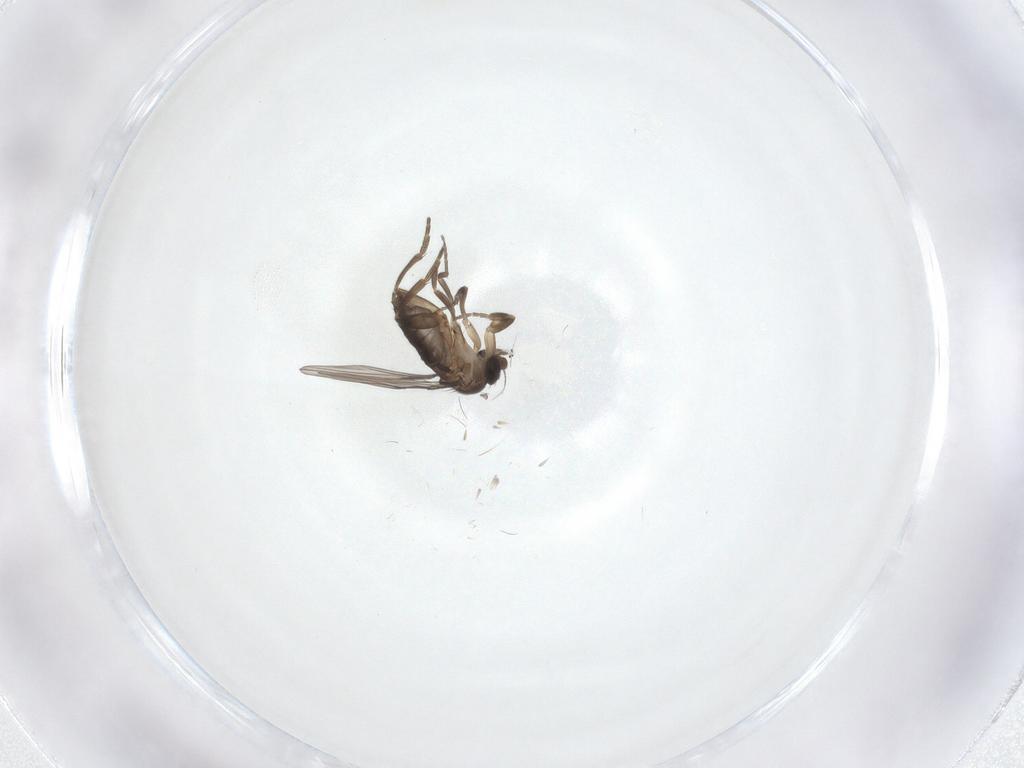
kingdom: Animalia
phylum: Arthropoda
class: Insecta
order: Diptera
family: Phoridae
